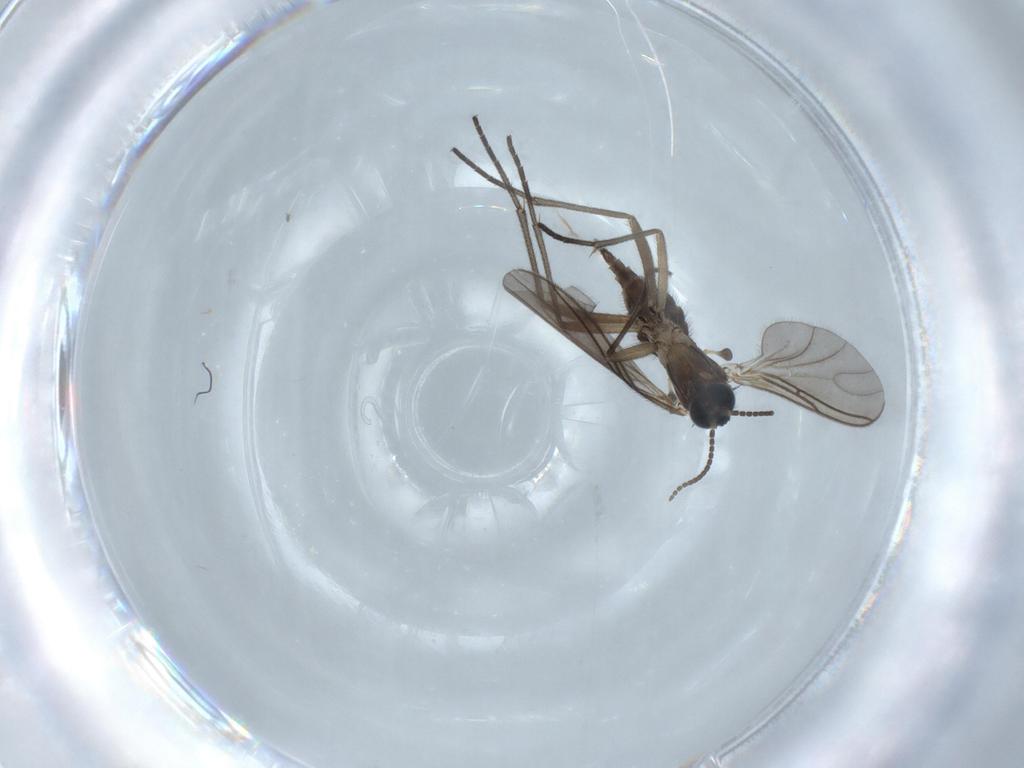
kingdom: Animalia
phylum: Arthropoda
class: Insecta
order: Diptera
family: Sciaridae
